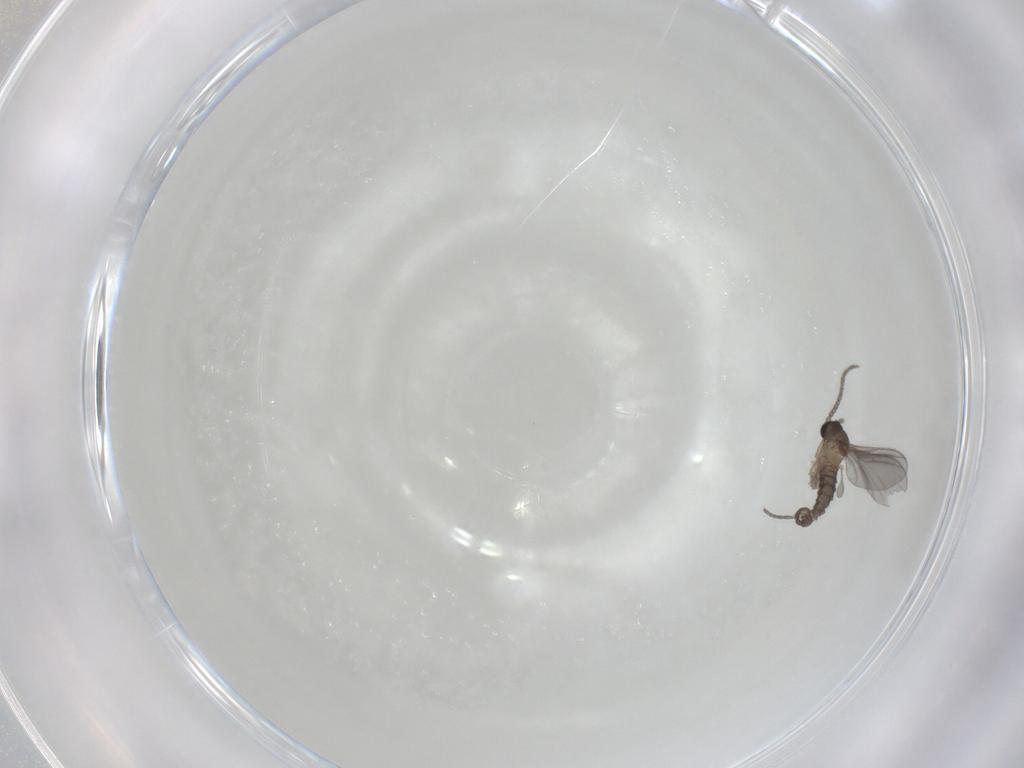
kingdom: Animalia
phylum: Arthropoda
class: Insecta
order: Diptera
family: Sciaridae
